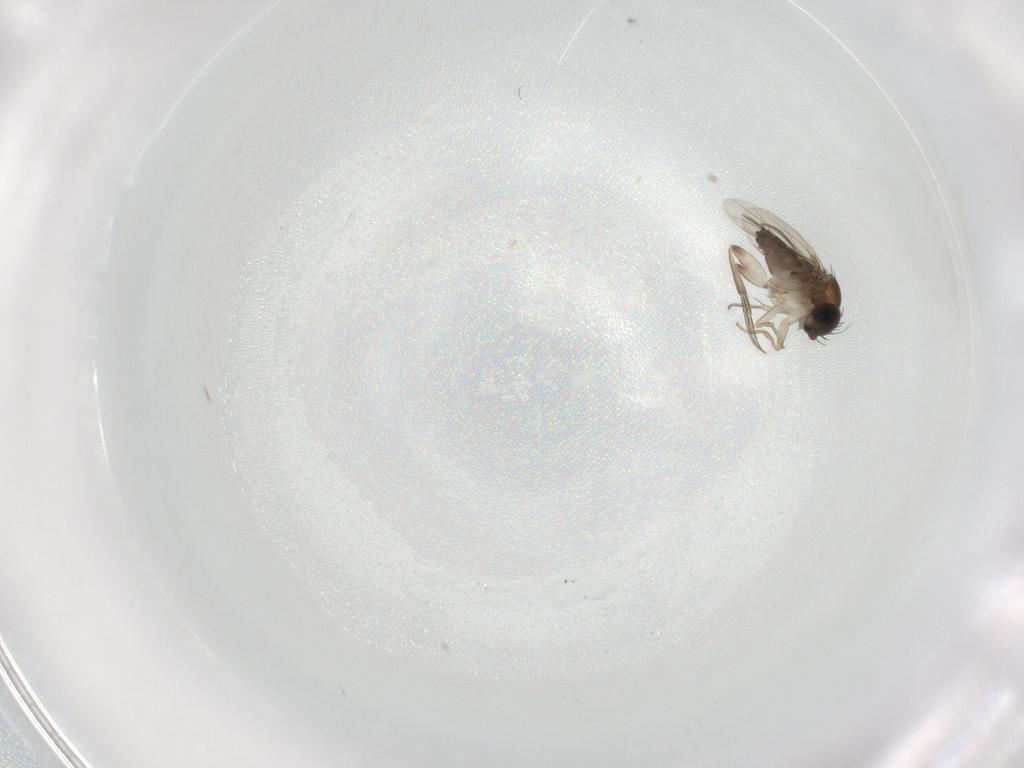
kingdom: Animalia
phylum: Arthropoda
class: Insecta
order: Diptera
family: Phoridae
